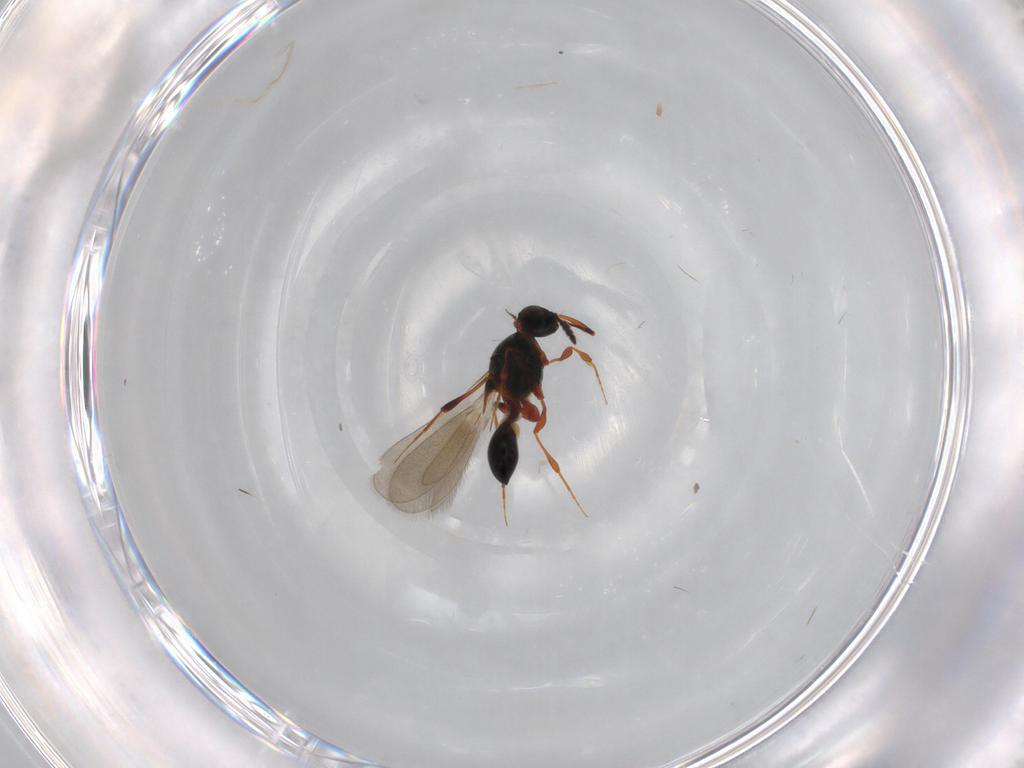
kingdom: Animalia
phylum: Arthropoda
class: Insecta
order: Hymenoptera
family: Platygastridae
